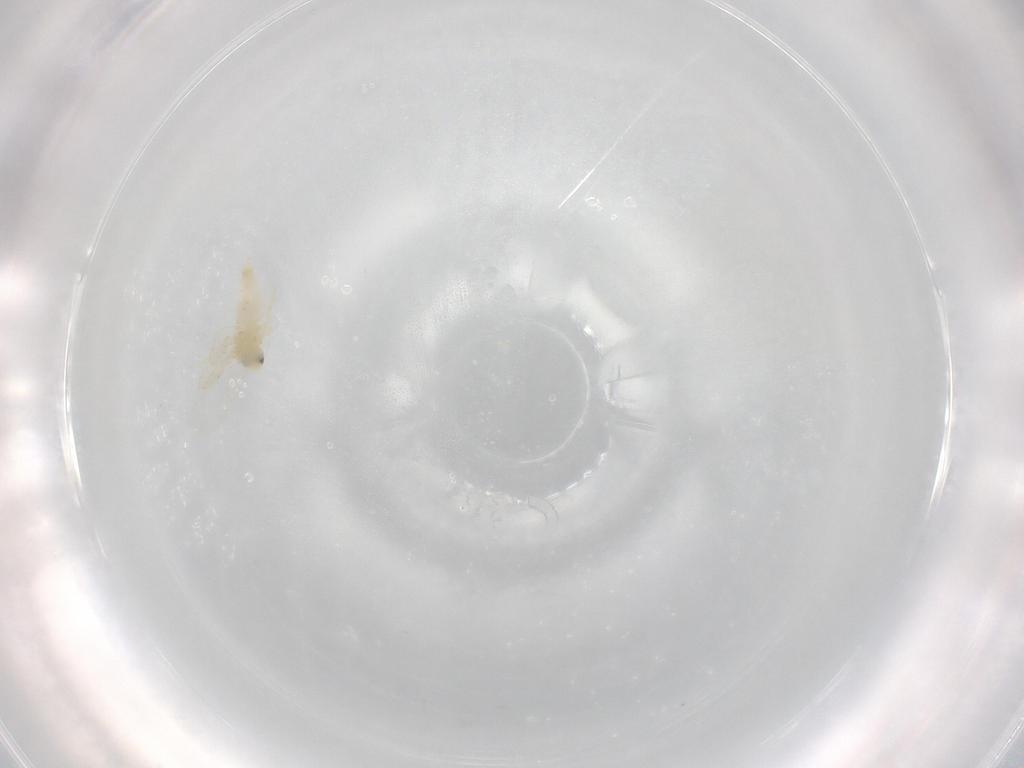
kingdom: Animalia
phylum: Arthropoda
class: Insecta
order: Hemiptera
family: Aleyrodidae
